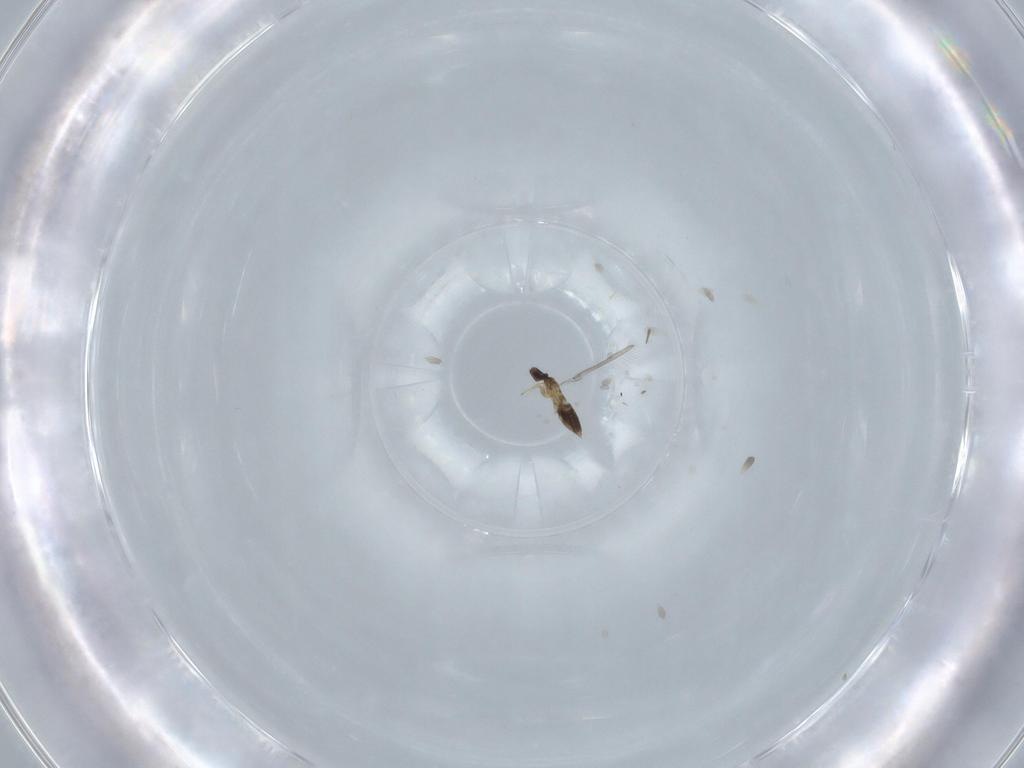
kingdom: Animalia
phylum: Arthropoda
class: Insecta
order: Hymenoptera
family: Mymaridae
